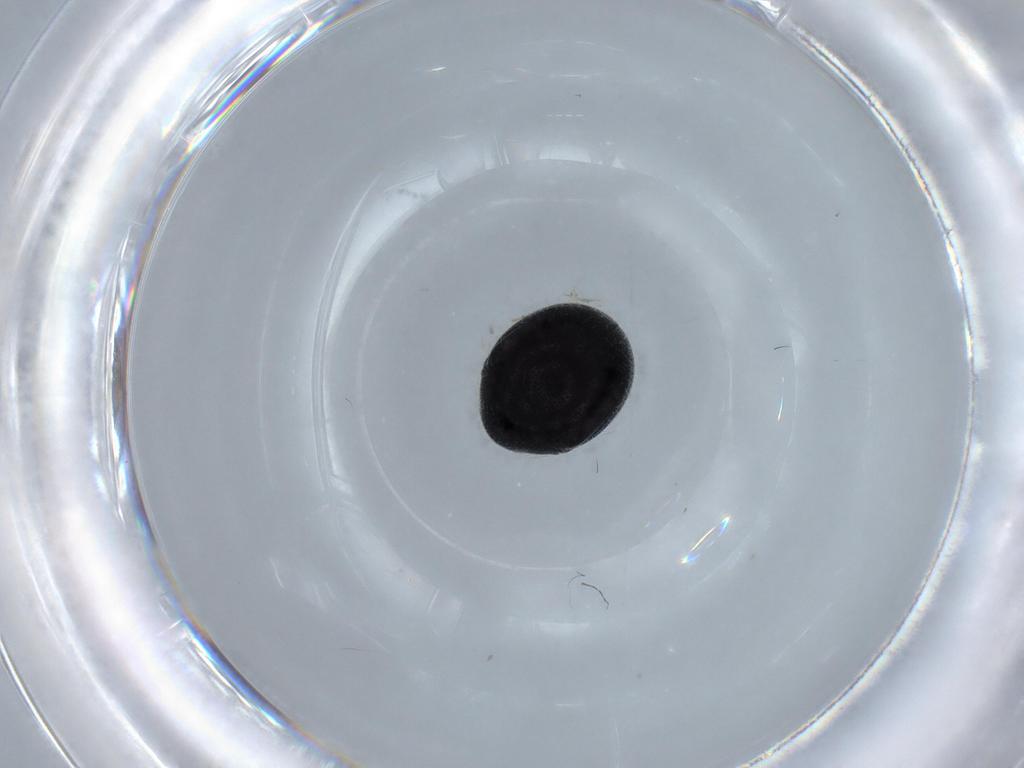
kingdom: Animalia
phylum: Arthropoda
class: Insecta
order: Coleoptera
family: Ptinidae
